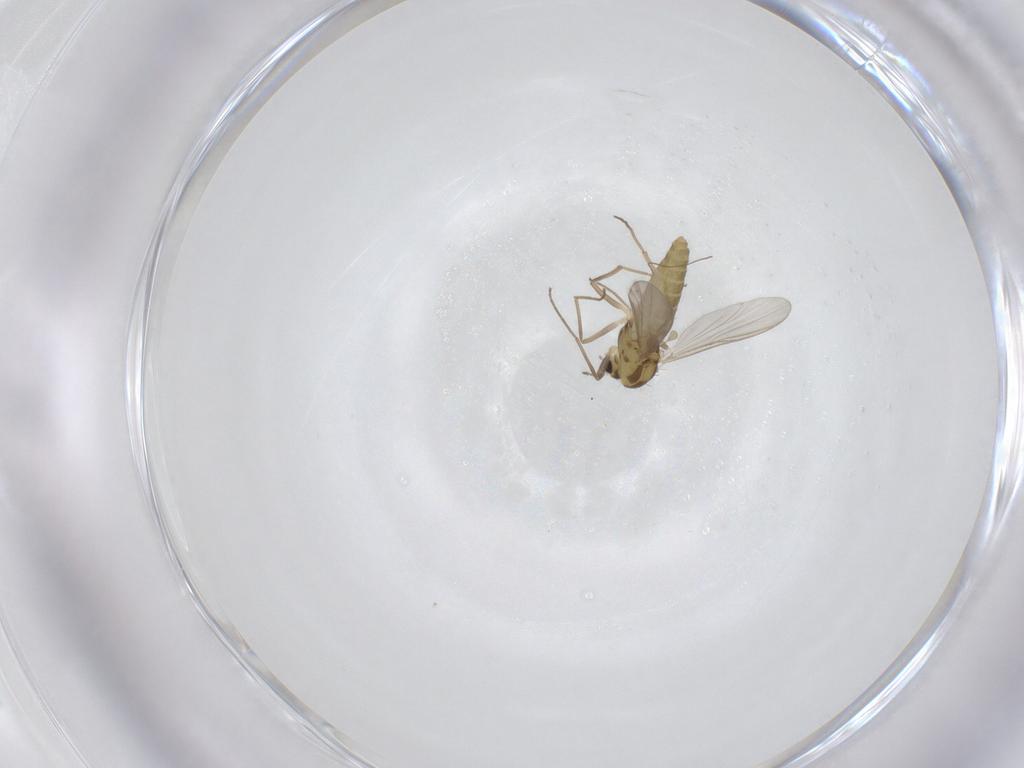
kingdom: Animalia
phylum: Arthropoda
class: Insecta
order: Diptera
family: Chironomidae
